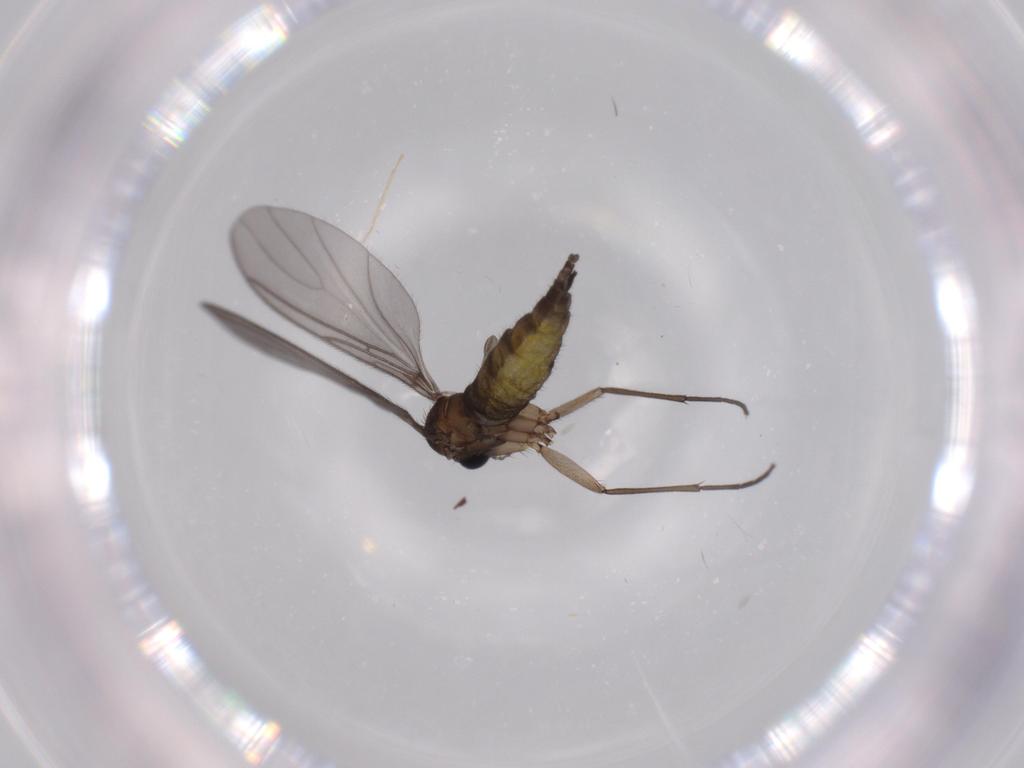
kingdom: Animalia
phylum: Arthropoda
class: Insecta
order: Diptera
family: Sciaridae
